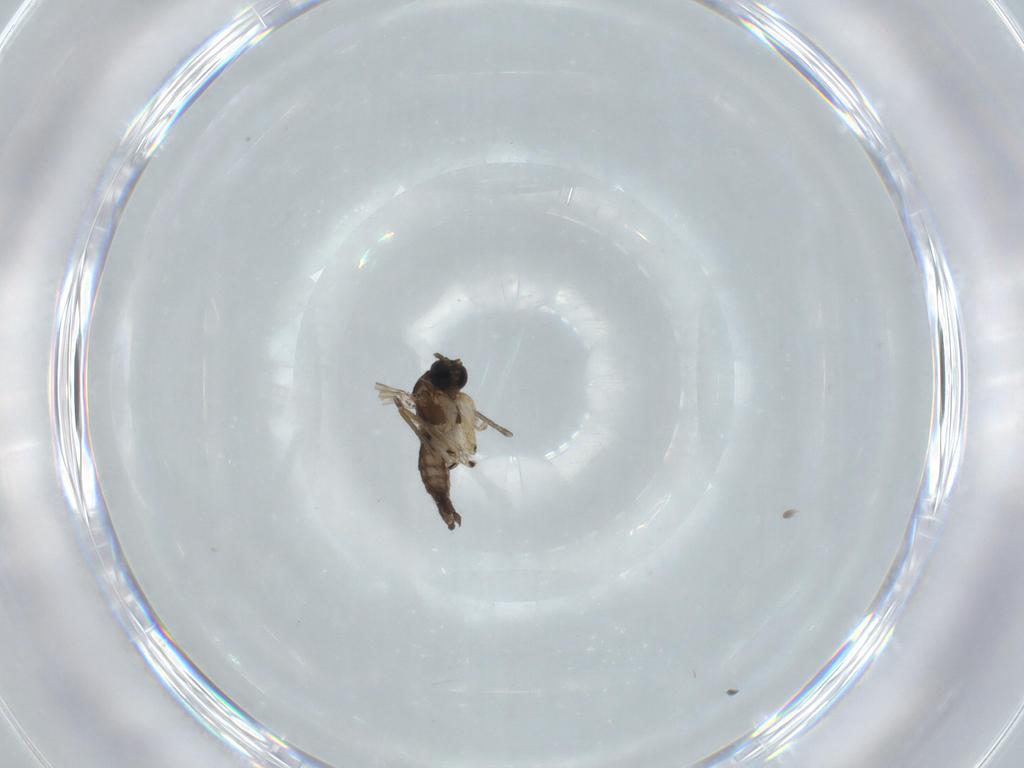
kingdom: Animalia
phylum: Arthropoda
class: Insecta
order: Diptera
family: Sciaridae
